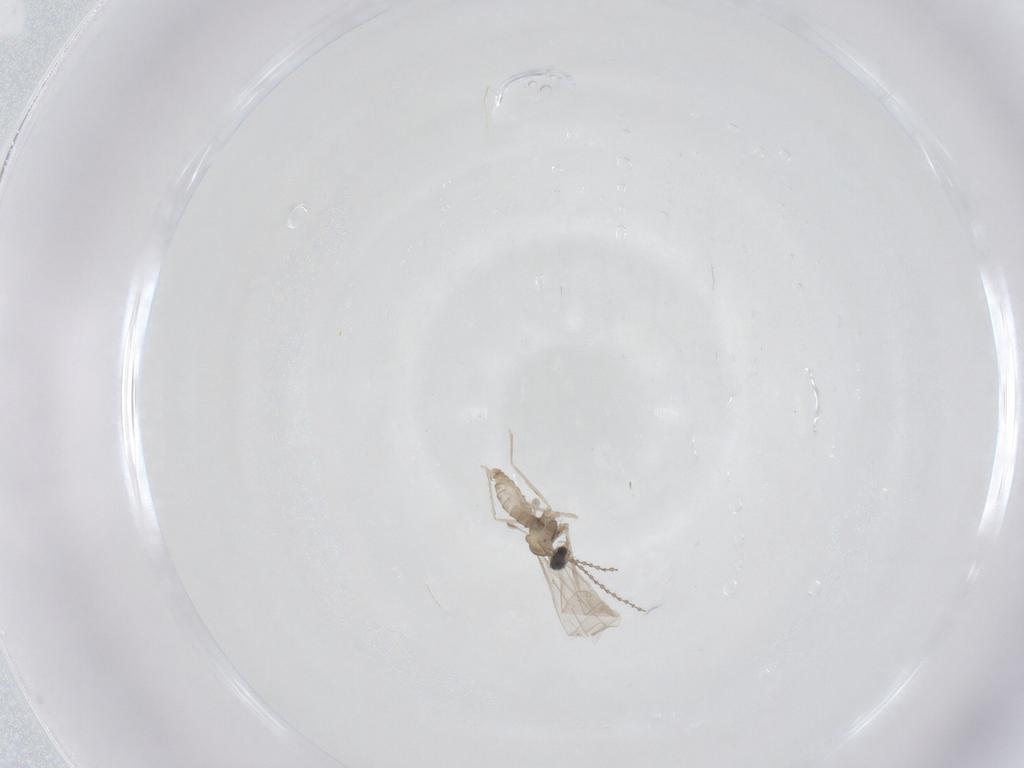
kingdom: Animalia
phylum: Arthropoda
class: Insecta
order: Diptera
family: Cecidomyiidae
